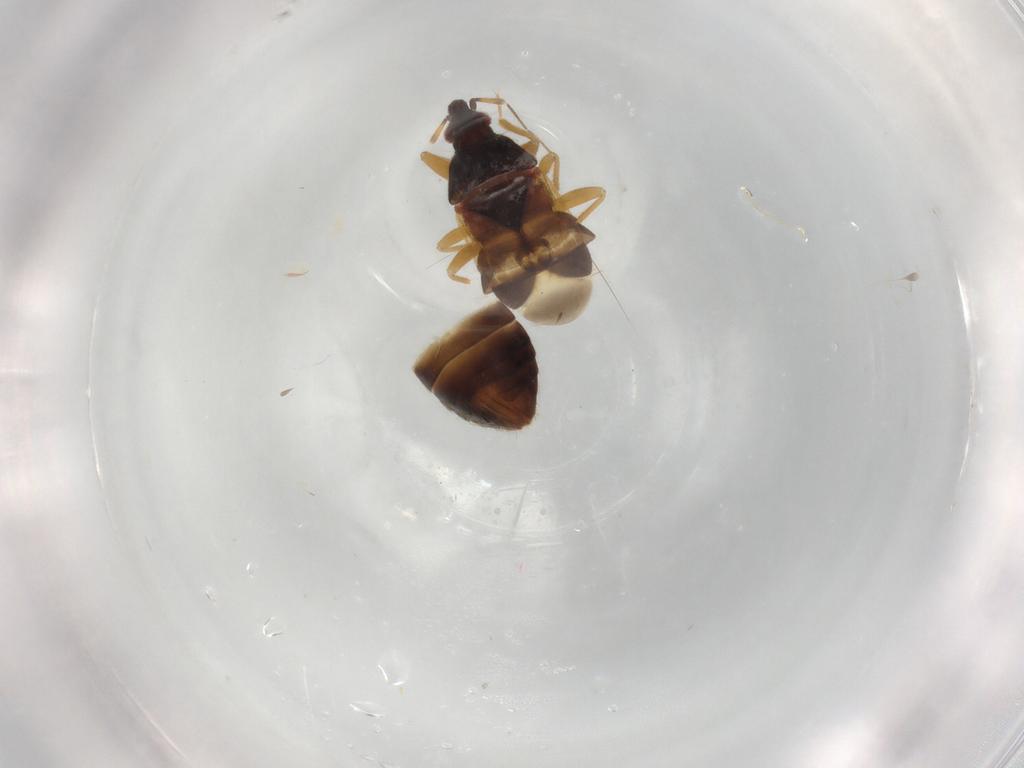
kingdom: Animalia
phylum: Arthropoda
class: Insecta
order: Hemiptera
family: Anthocoridae
